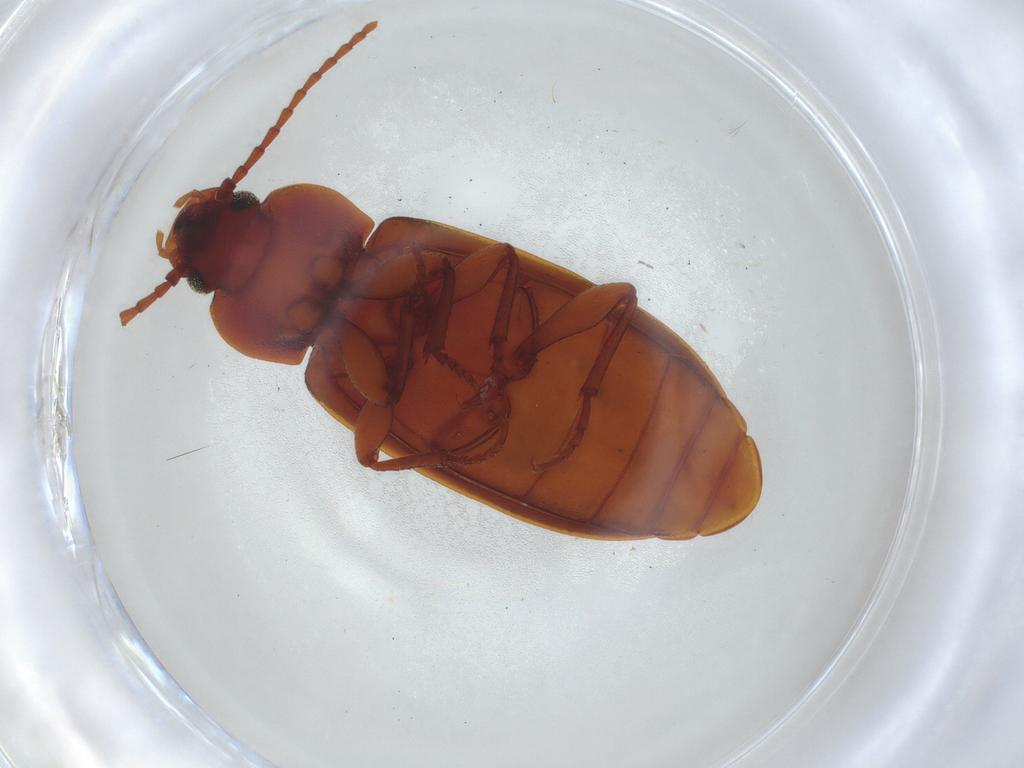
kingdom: Animalia
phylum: Arthropoda
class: Insecta
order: Coleoptera
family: Tenebrionidae
